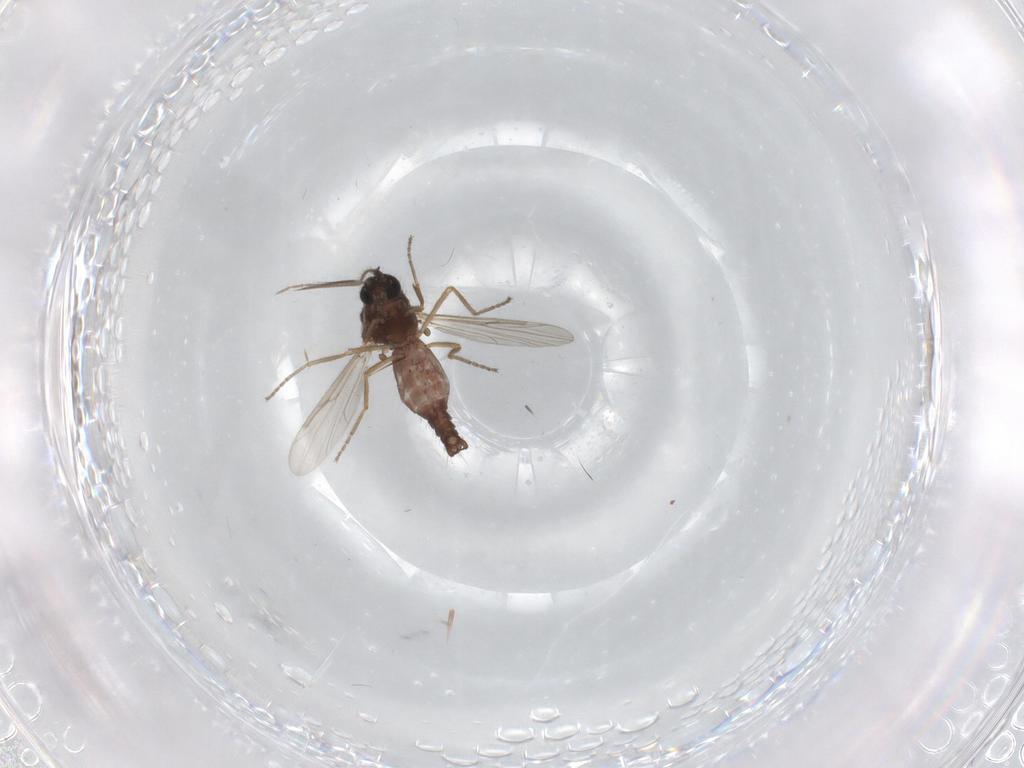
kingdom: Animalia
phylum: Arthropoda
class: Insecta
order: Diptera
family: Ceratopogonidae
